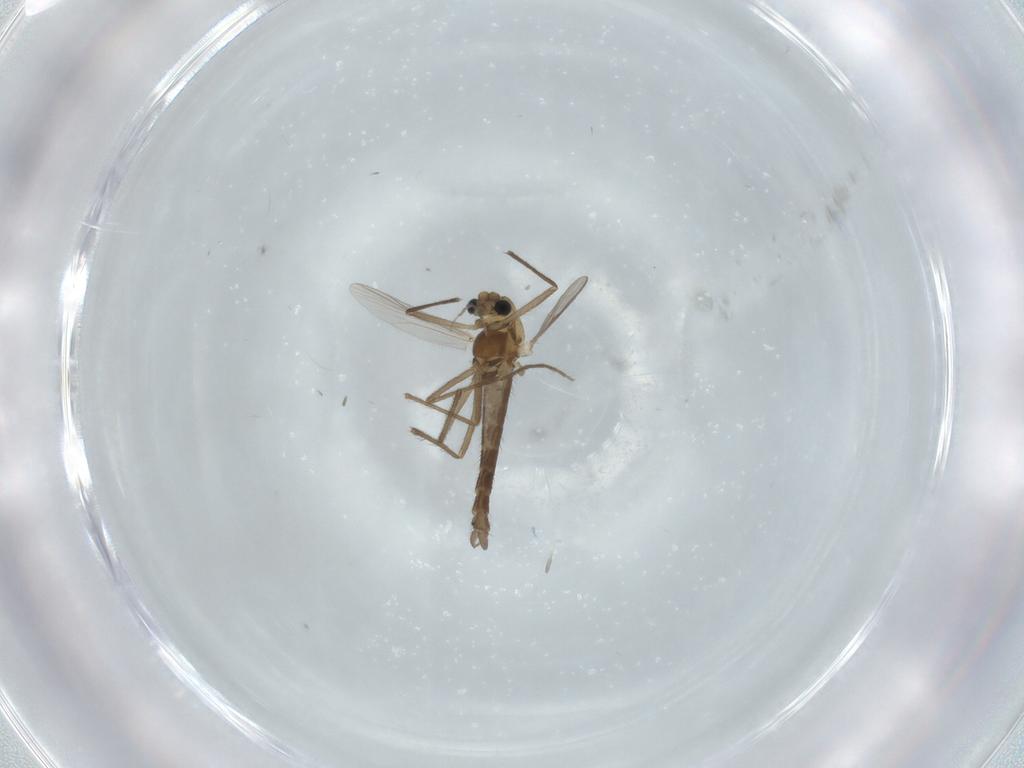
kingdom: Animalia
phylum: Arthropoda
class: Insecta
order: Diptera
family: Chironomidae
